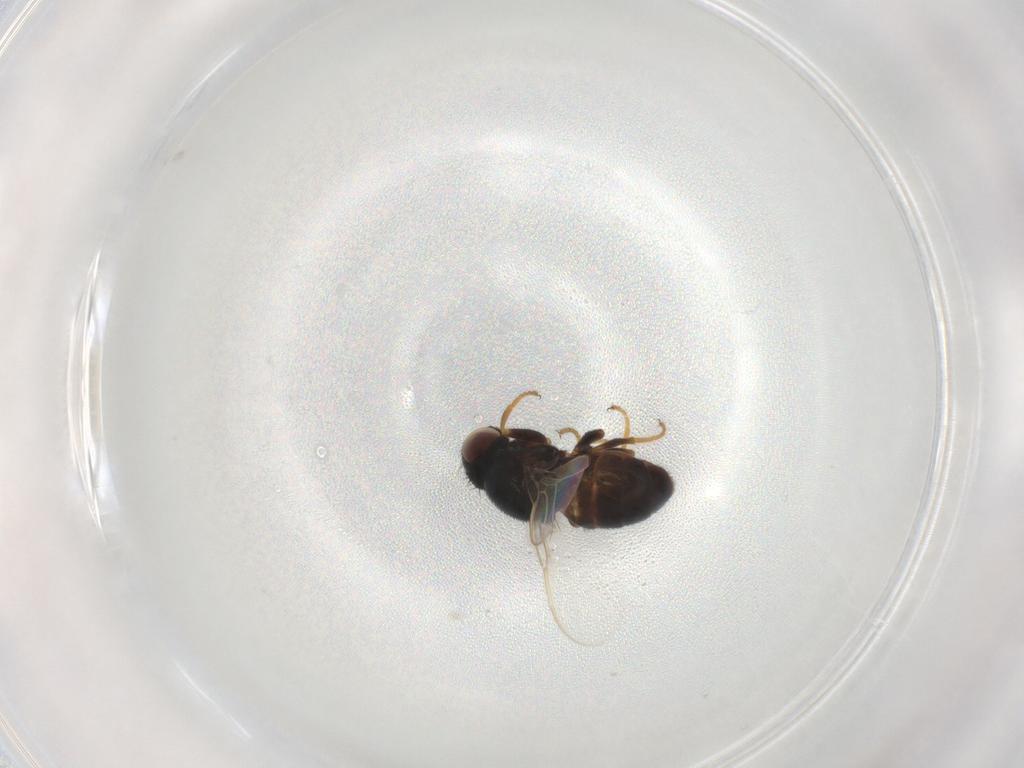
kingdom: Animalia
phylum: Arthropoda
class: Insecta
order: Diptera
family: Chloropidae
